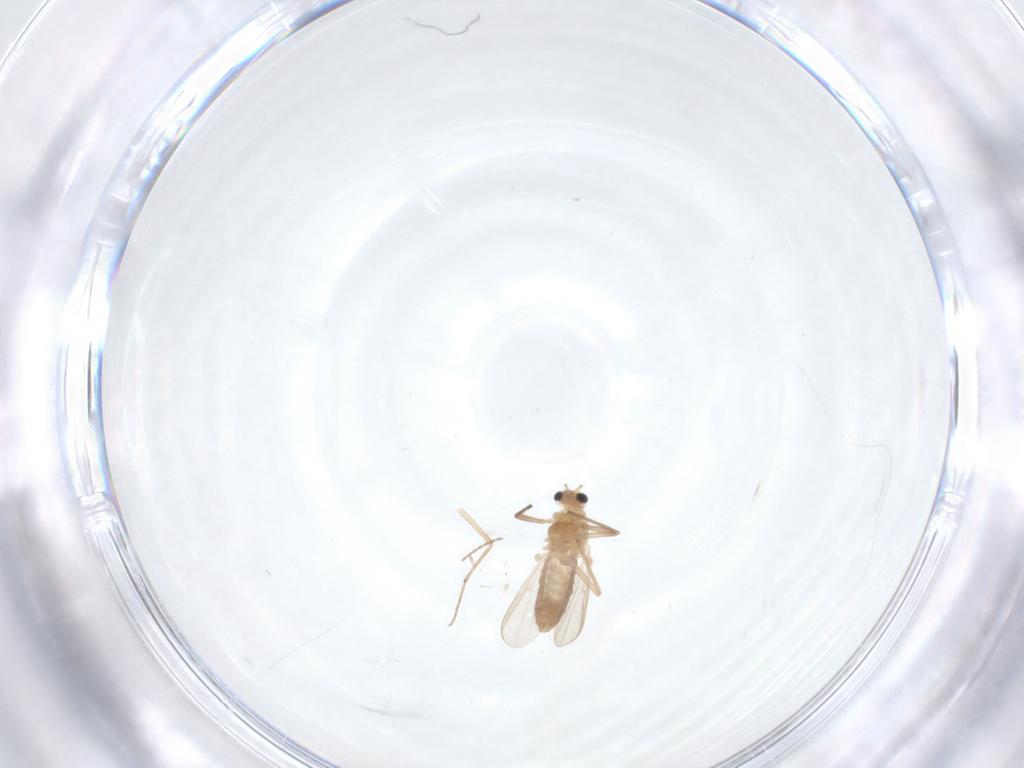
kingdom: Animalia
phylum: Arthropoda
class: Insecta
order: Diptera
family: Cecidomyiidae
